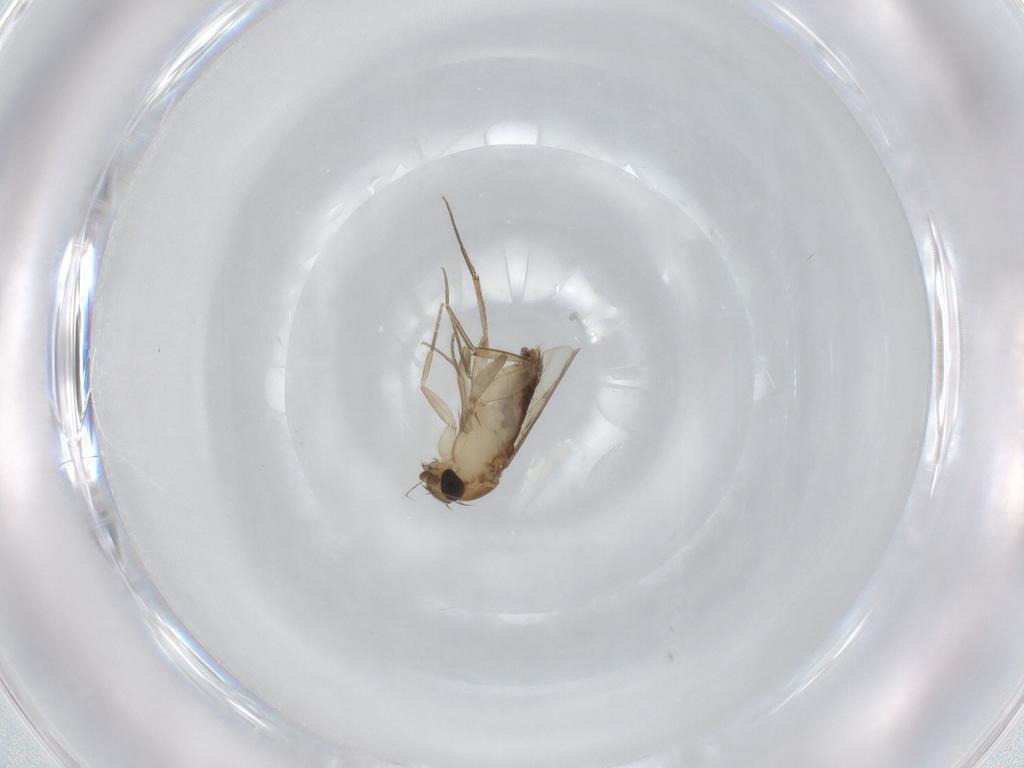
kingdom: Animalia
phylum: Arthropoda
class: Insecta
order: Diptera
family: Phoridae
